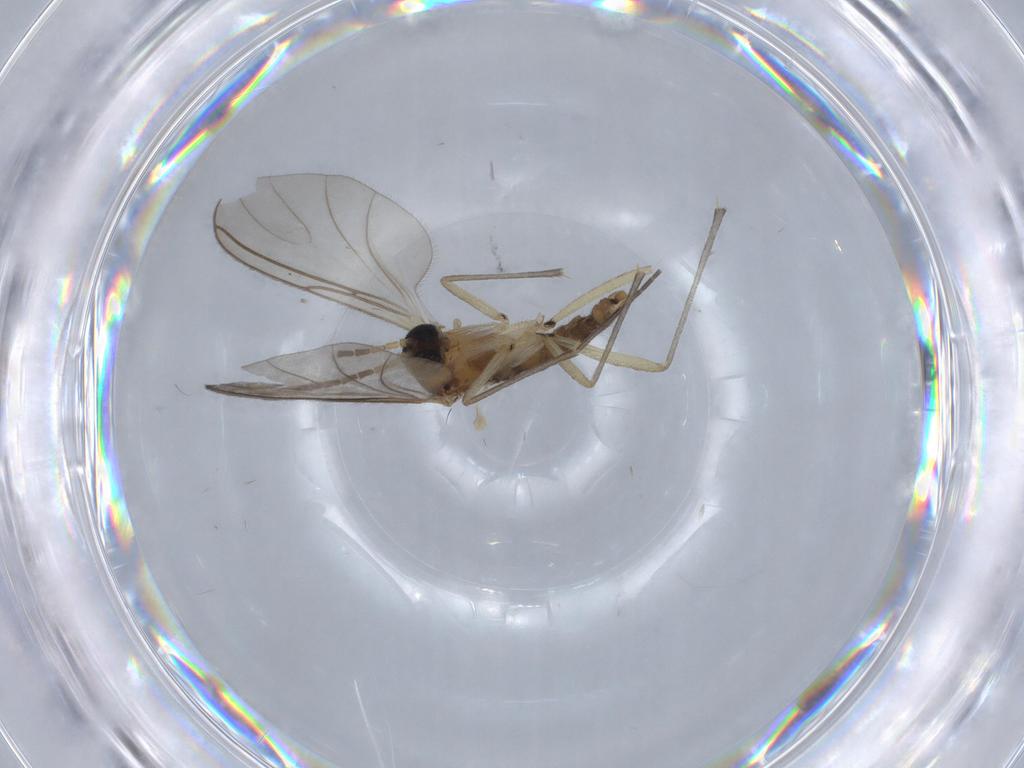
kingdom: Animalia
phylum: Arthropoda
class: Insecta
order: Diptera
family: Sciaridae
